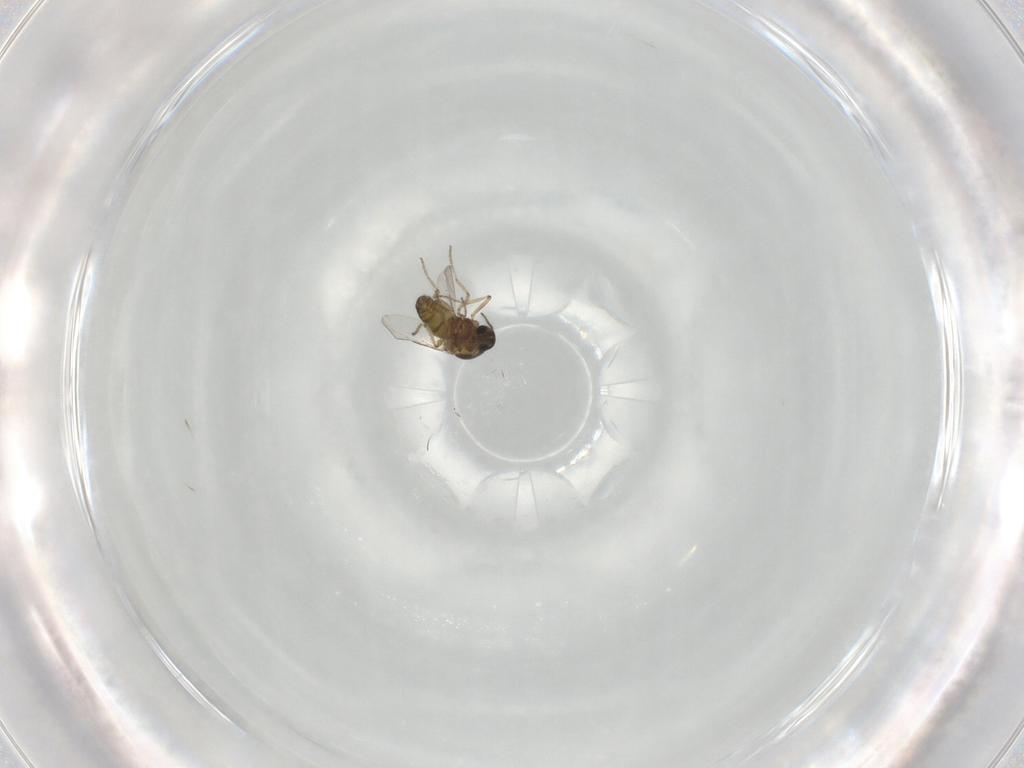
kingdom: Animalia
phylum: Arthropoda
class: Insecta
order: Diptera
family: Ceratopogonidae
